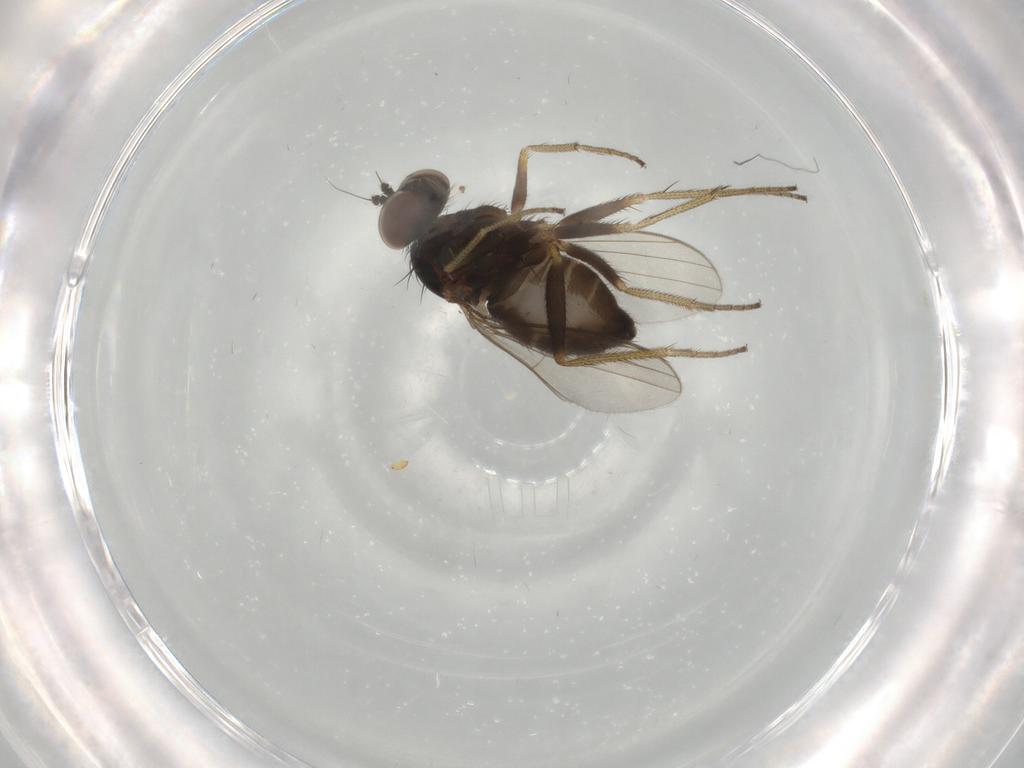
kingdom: Animalia
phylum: Arthropoda
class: Insecta
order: Diptera
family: Dolichopodidae
